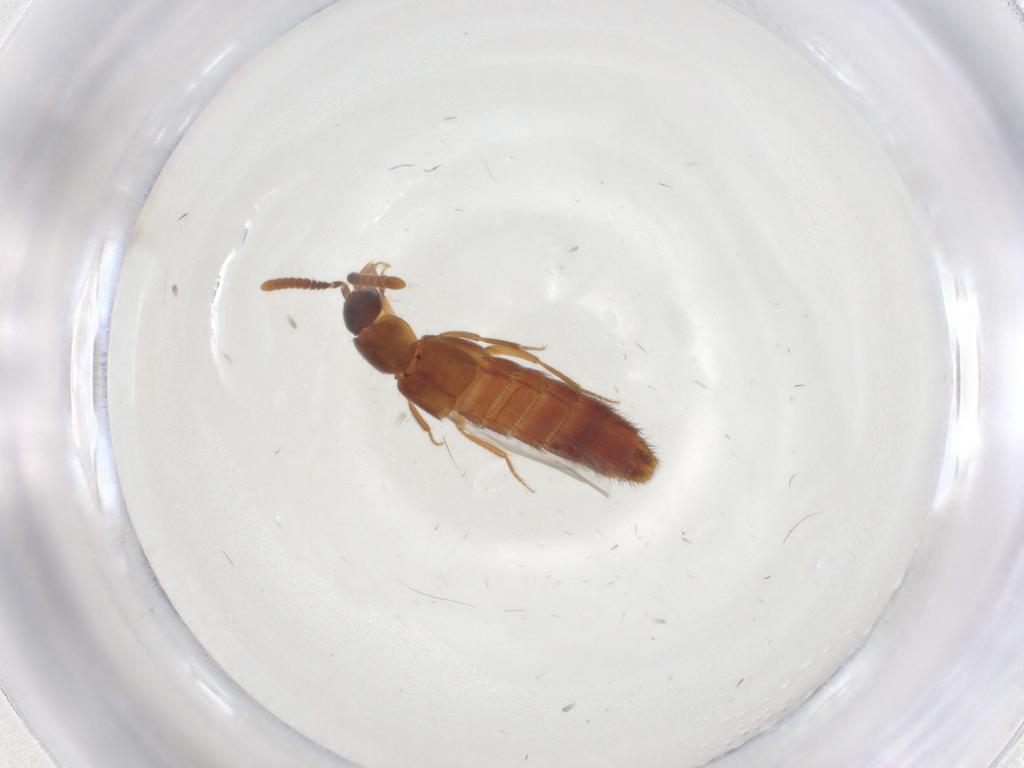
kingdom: Animalia
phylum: Arthropoda
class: Insecta
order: Coleoptera
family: Staphylinidae
